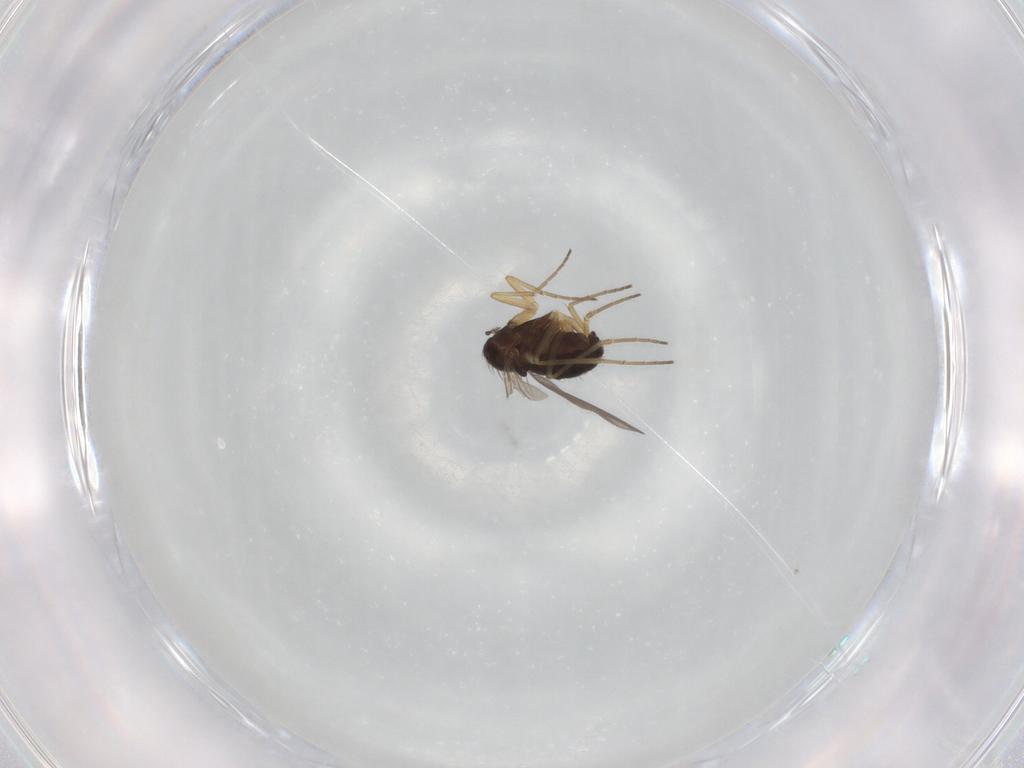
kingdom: Animalia
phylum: Arthropoda
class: Insecta
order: Diptera
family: Dolichopodidae
